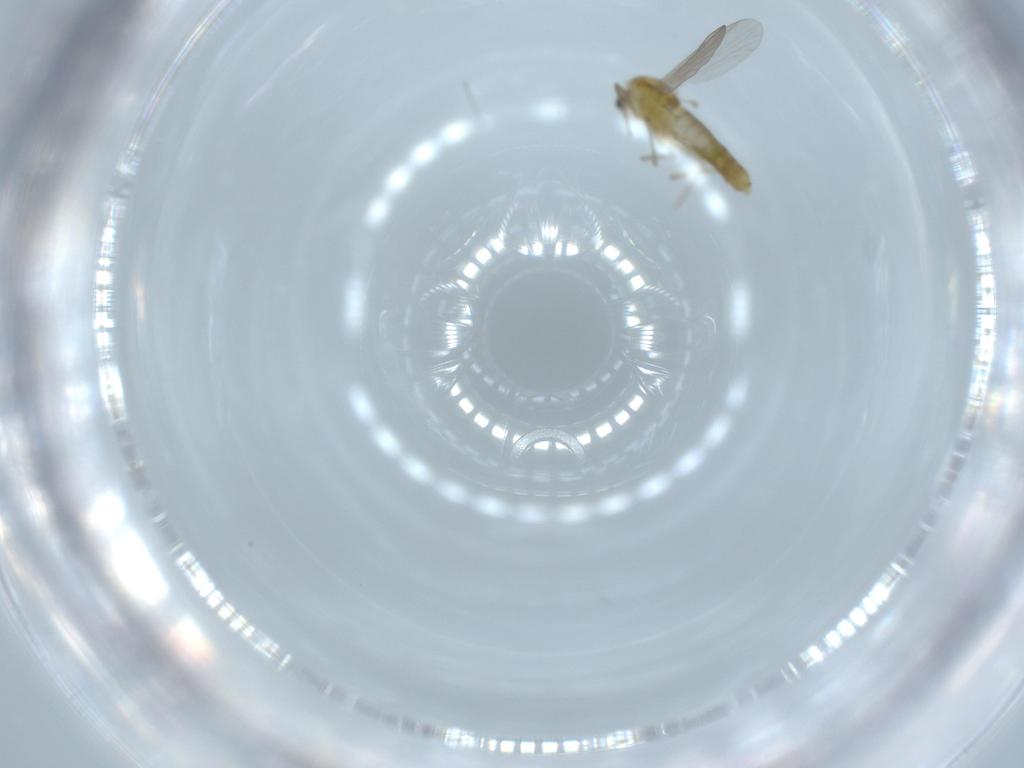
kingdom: Animalia
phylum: Arthropoda
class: Insecta
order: Diptera
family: Chironomidae
